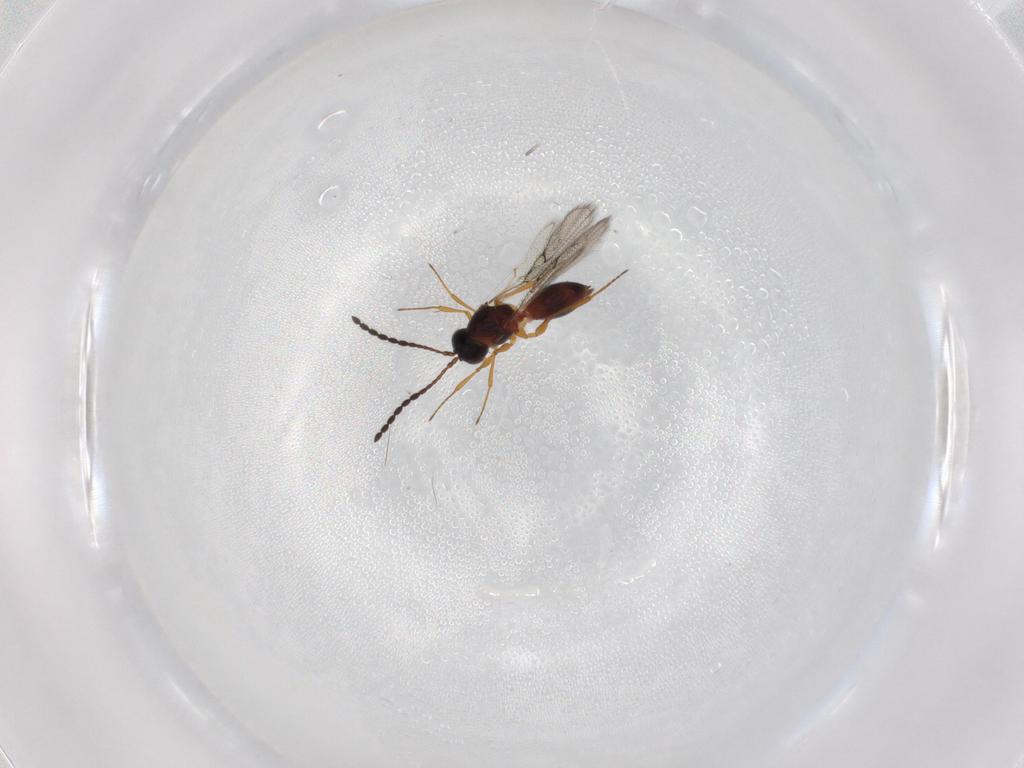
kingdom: Animalia
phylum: Arthropoda
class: Insecta
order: Hymenoptera
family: Figitidae
